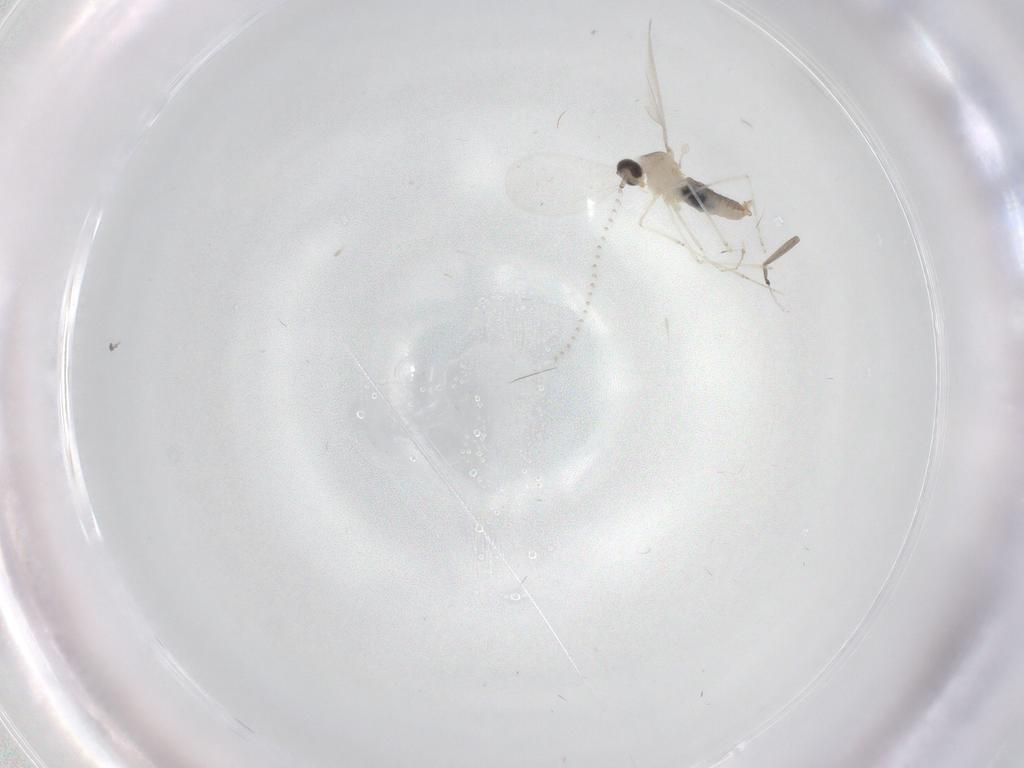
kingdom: Animalia
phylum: Arthropoda
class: Insecta
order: Diptera
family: Cecidomyiidae
